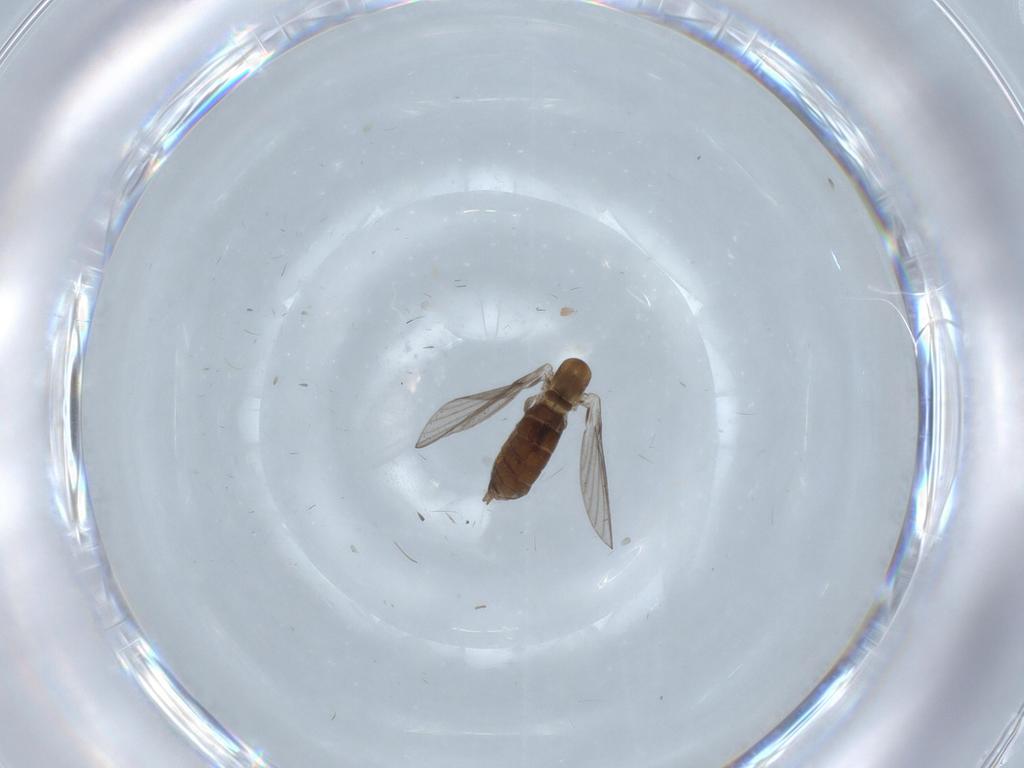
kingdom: Animalia
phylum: Arthropoda
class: Insecta
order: Diptera
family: Psychodidae
